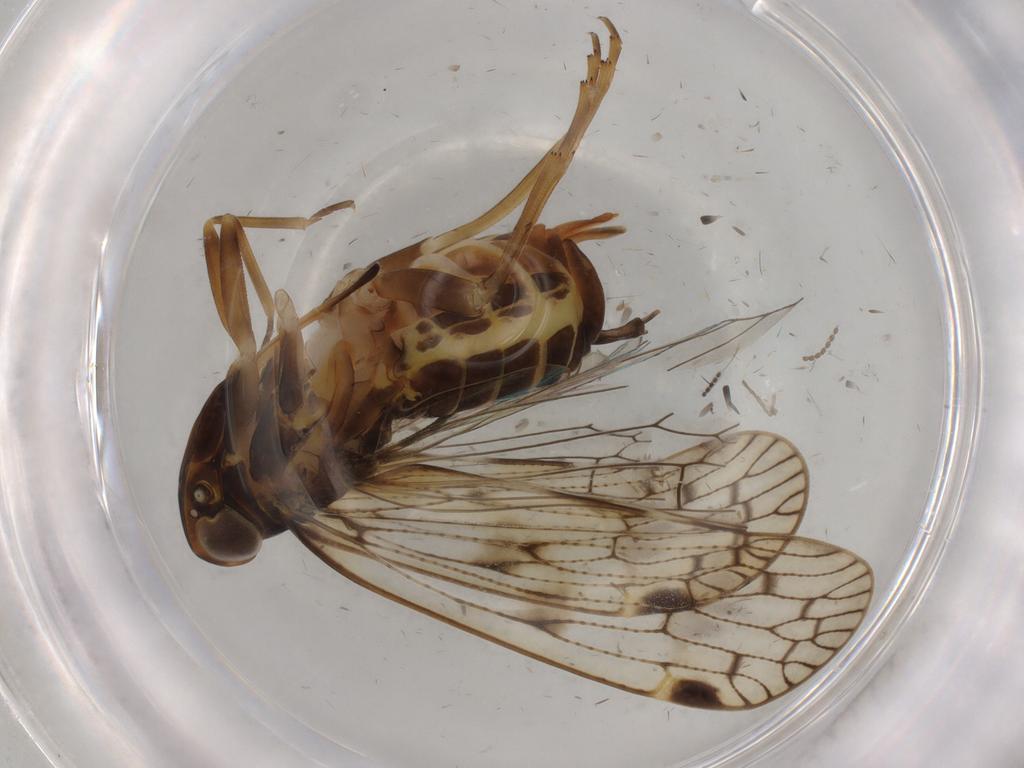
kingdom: Animalia
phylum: Arthropoda
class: Insecta
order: Hemiptera
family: Cixiidae
